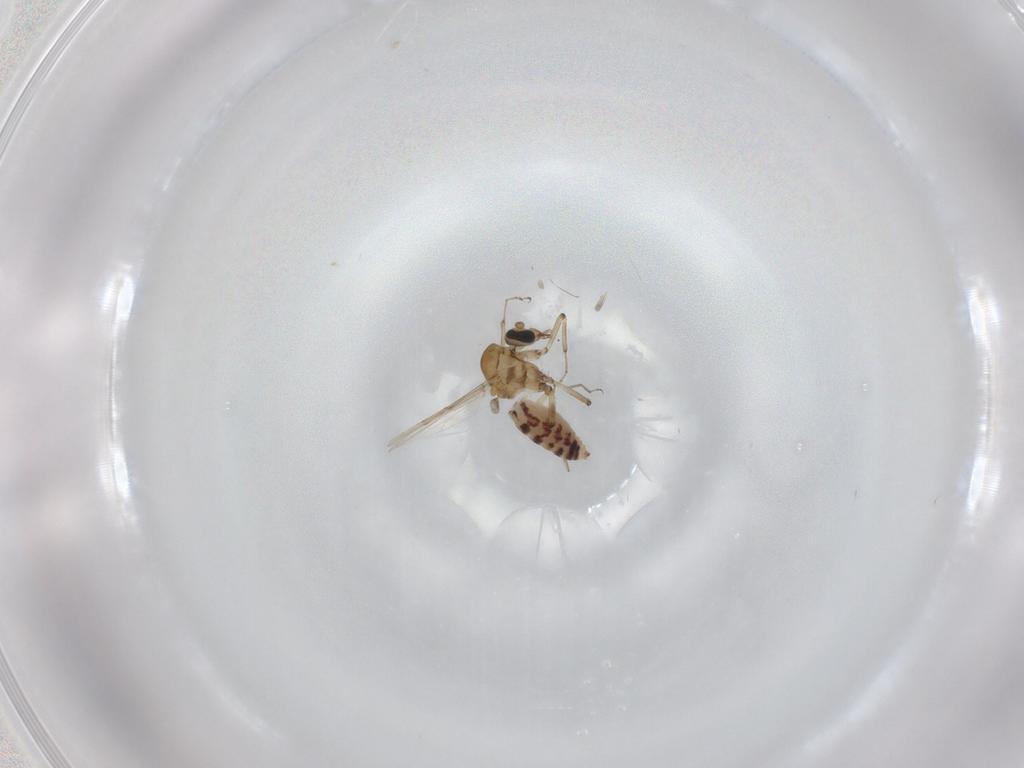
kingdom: Animalia
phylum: Arthropoda
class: Insecta
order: Diptera
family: Ceratopogonidae
